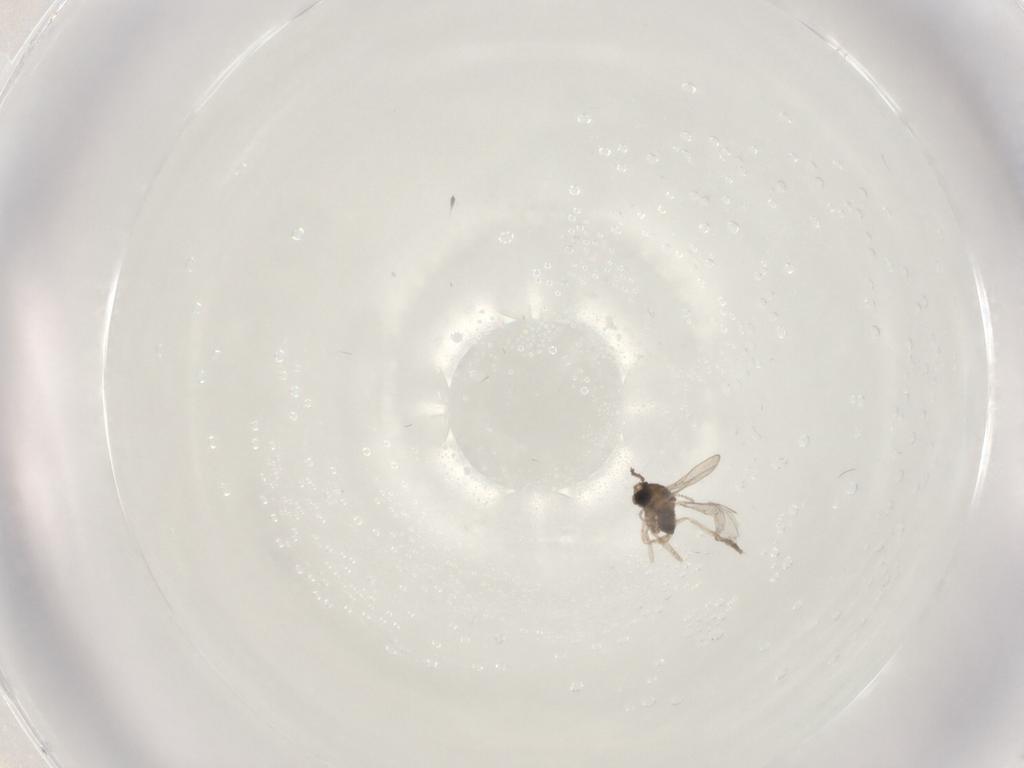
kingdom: Animalia
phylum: Arthropoda
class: Insecta
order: Diptera
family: Cecidomyiidae
